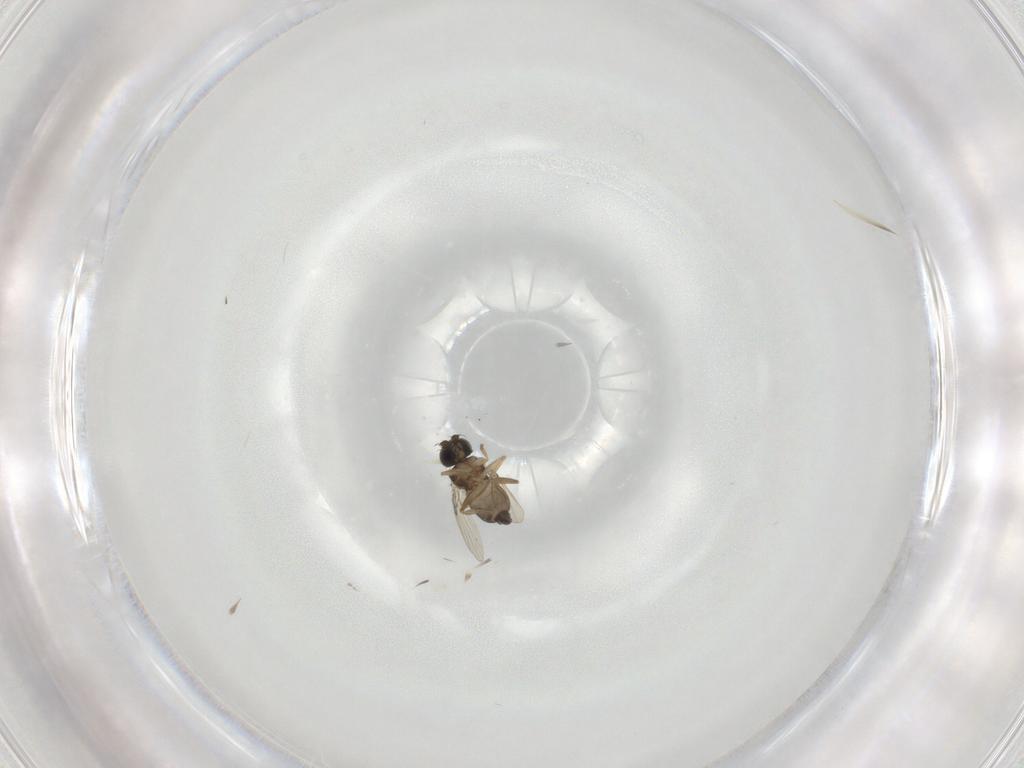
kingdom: Animalia
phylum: Arthropoda
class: Insecta
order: Diptera
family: Phoridae
